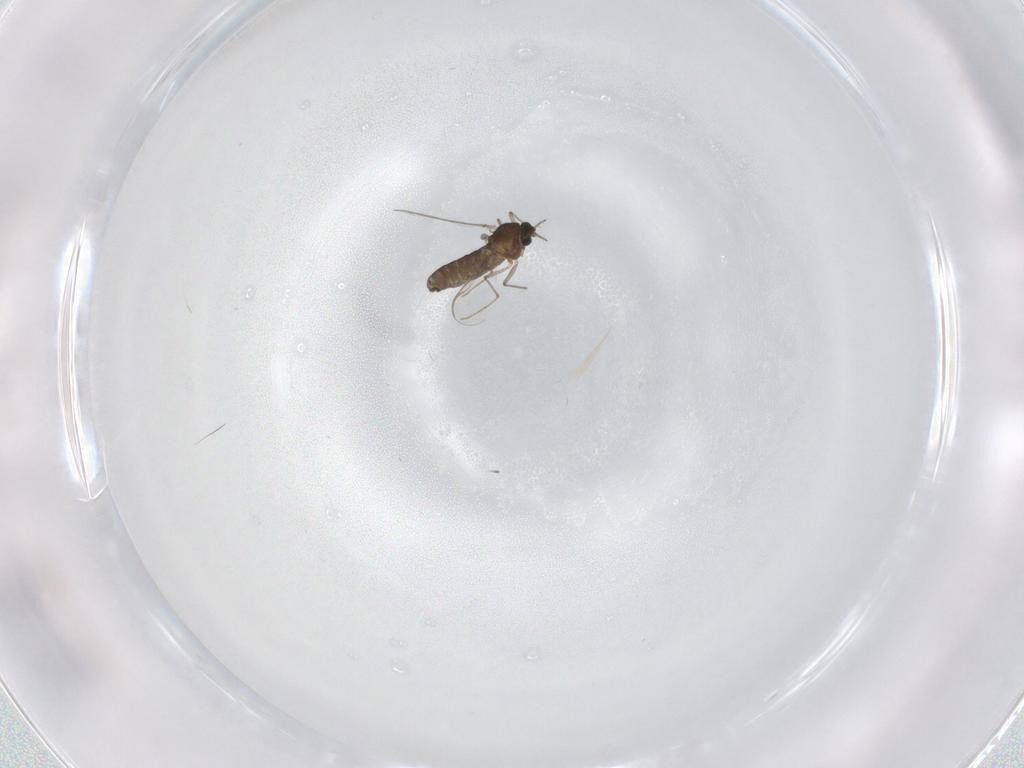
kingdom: Animalia
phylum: Arthropoda
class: Insecta
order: Diptera
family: Chironomidae
